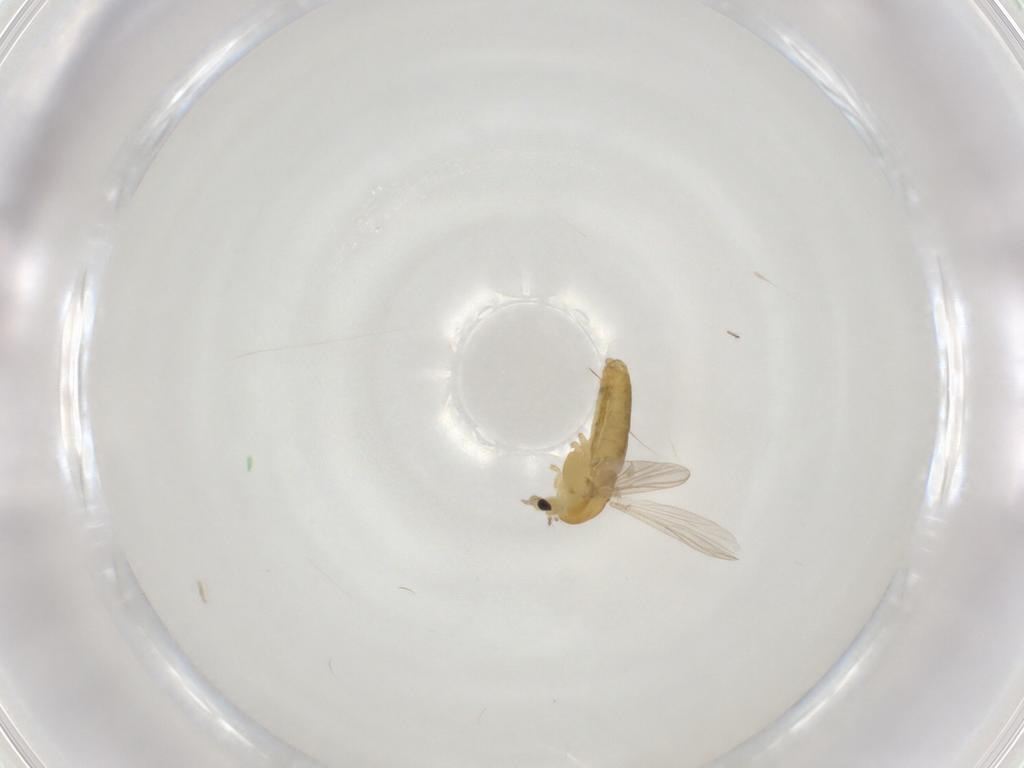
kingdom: Animalia
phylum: Arthropoda
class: Insecta
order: Diptera
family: Chironomidae
